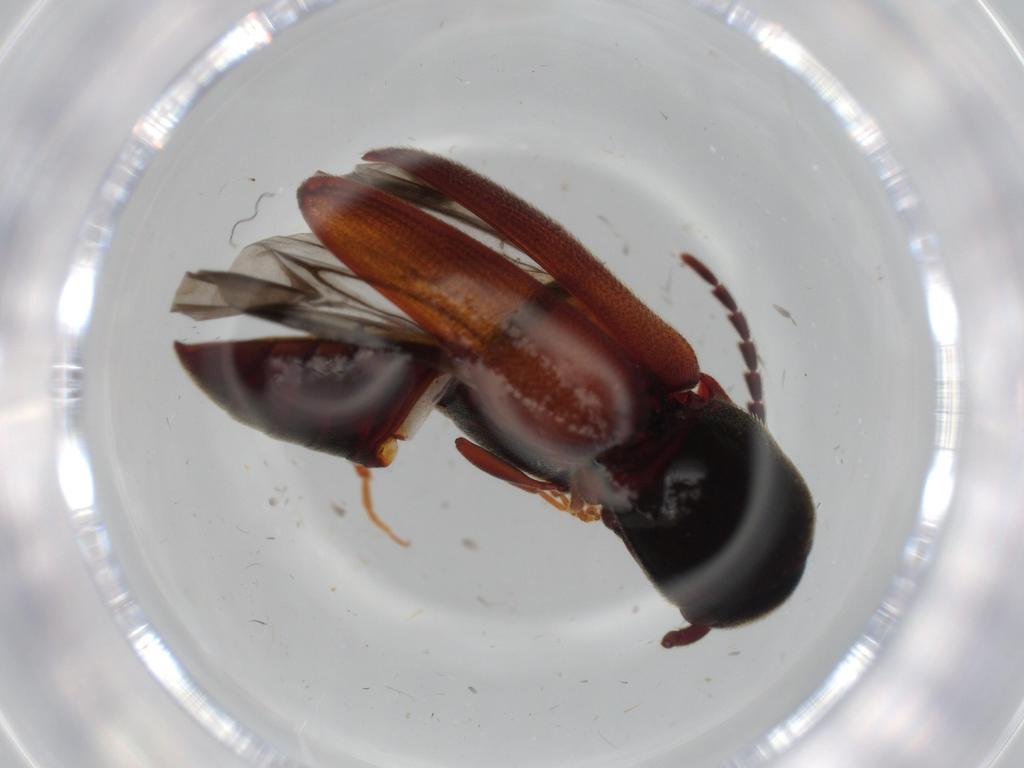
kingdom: Animalia
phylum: Arthropoda
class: Insecta
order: Coleoptera
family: Eucnemidae
